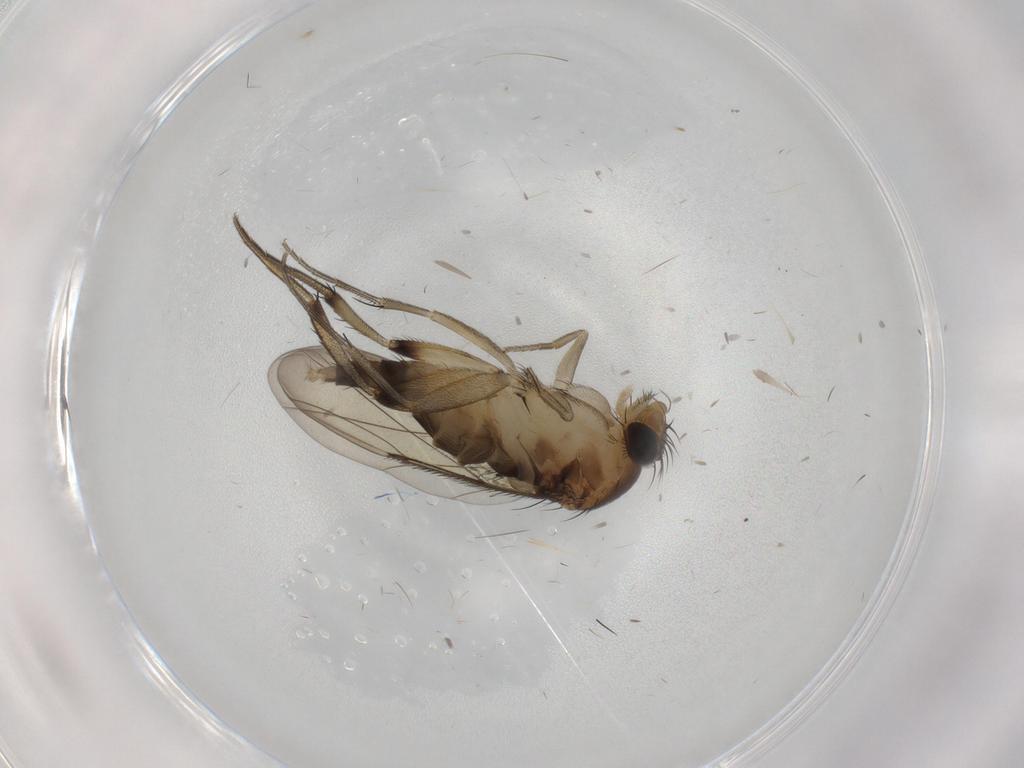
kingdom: Animalia
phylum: Arthropoda
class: Insecta
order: Diptera
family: Phoridae
